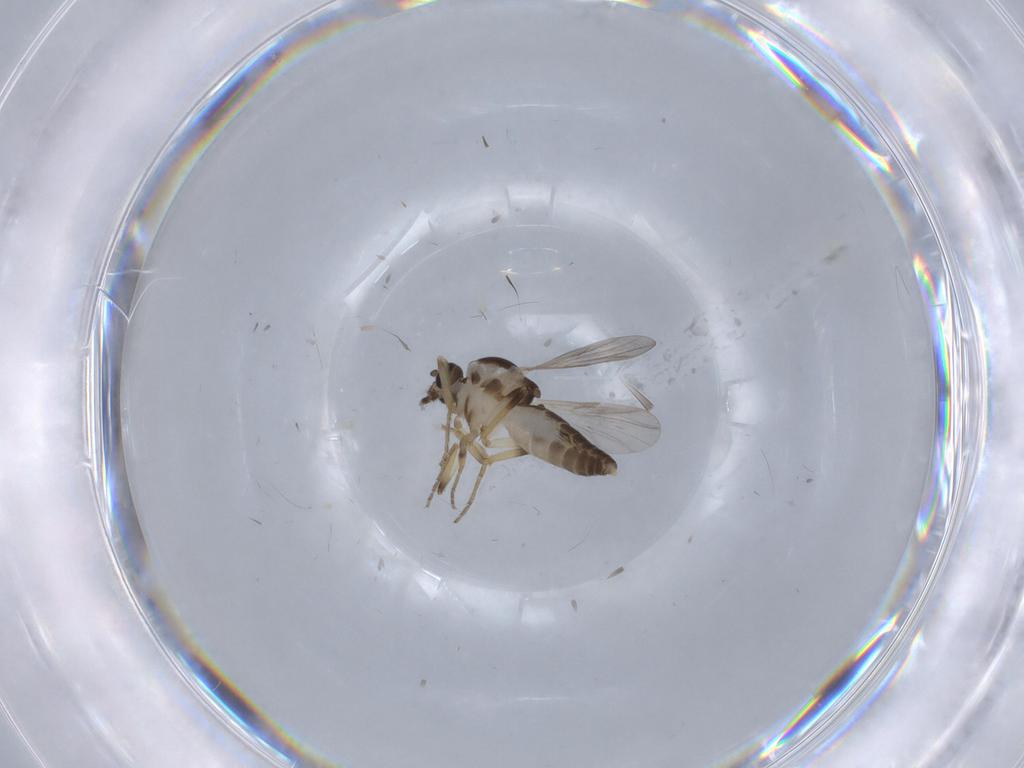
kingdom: Animalia
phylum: Arthropoda
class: Insecta
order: Diptera
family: Ceratopogonidae
